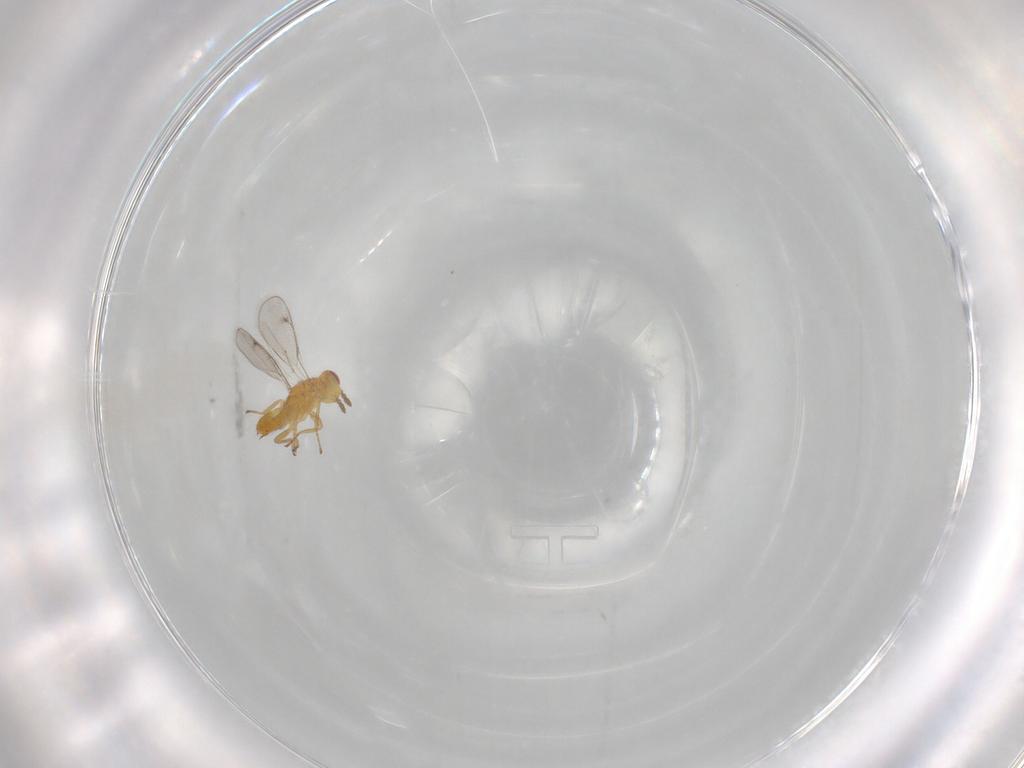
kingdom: Animalia
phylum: Arthropoda
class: Insecta
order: Hymenoptera
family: Eulophidae
